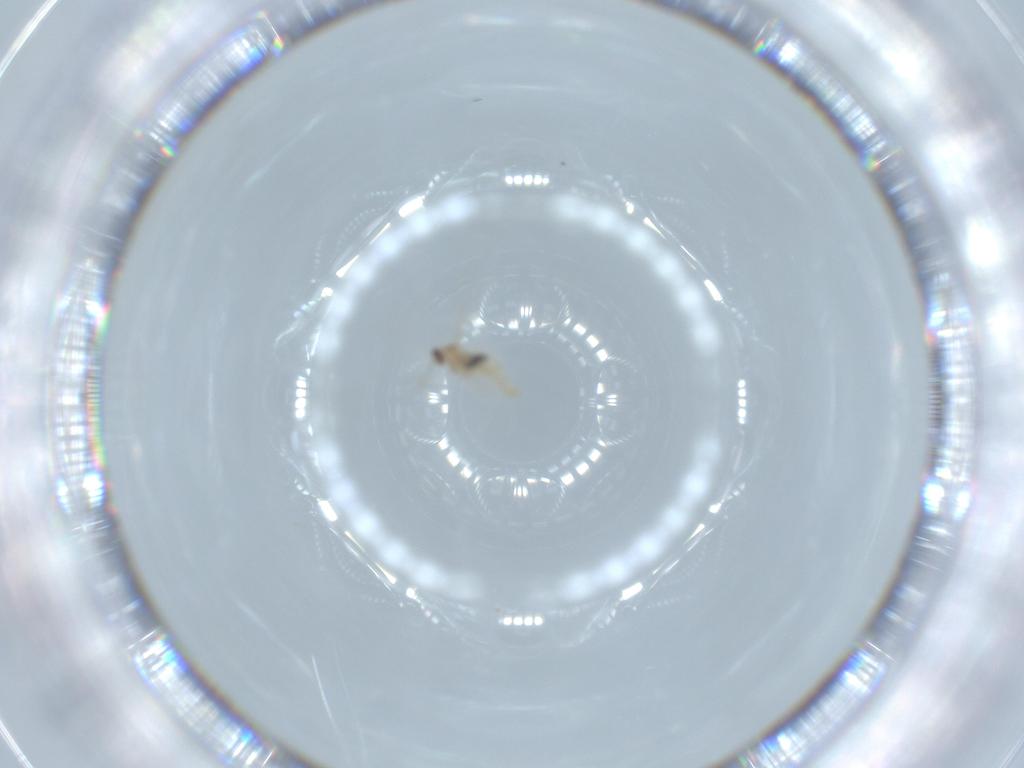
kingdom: Animalia
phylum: Arthropoda
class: Insecta
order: Diptera
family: Cecidomyiidae
